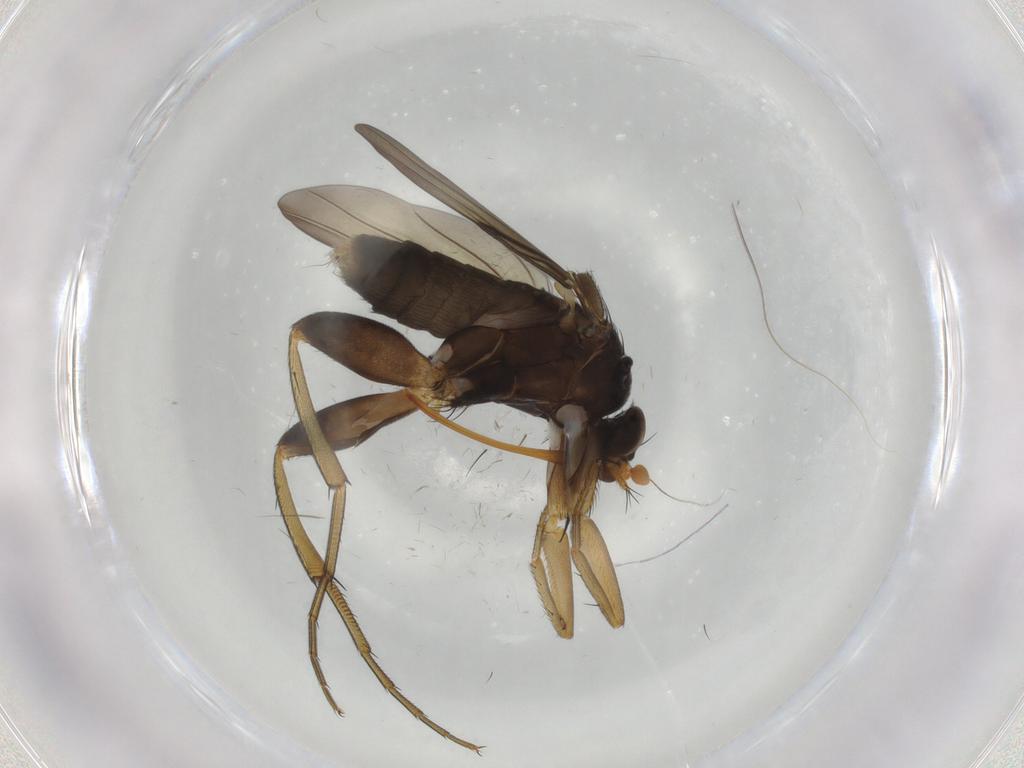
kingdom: Animalia
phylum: Arthropoda
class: Insecta
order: Diptera
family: Phoridae
